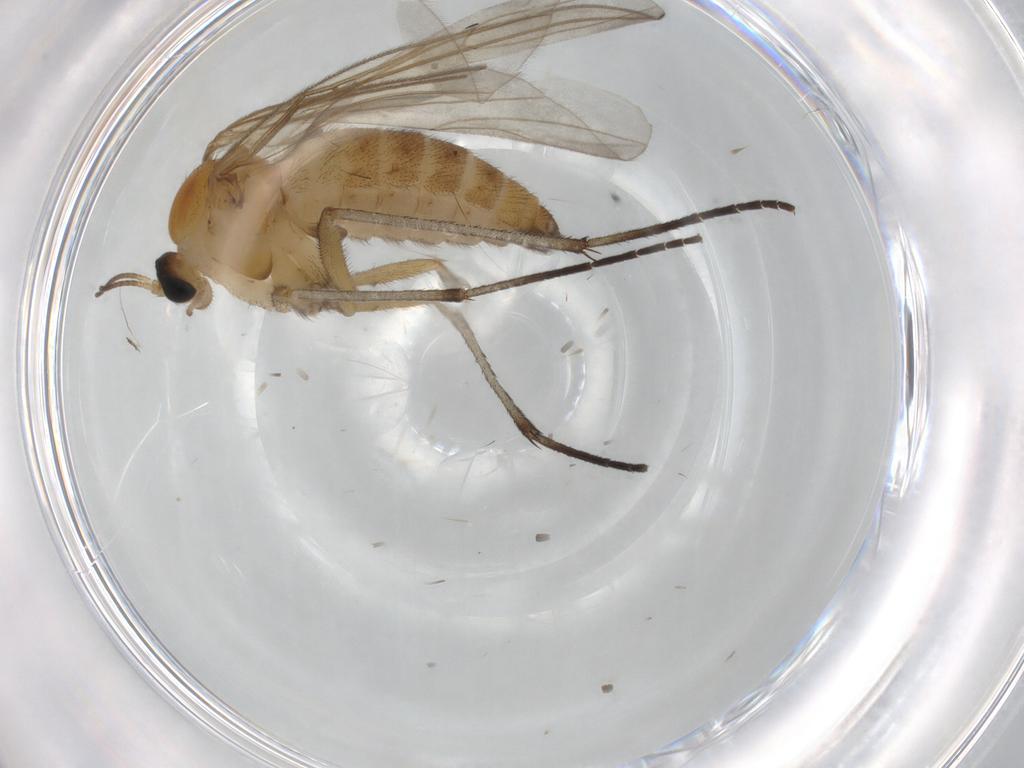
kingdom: Animalia
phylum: Arthropoda
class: Insecta
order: Diptera
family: Sciaridae
